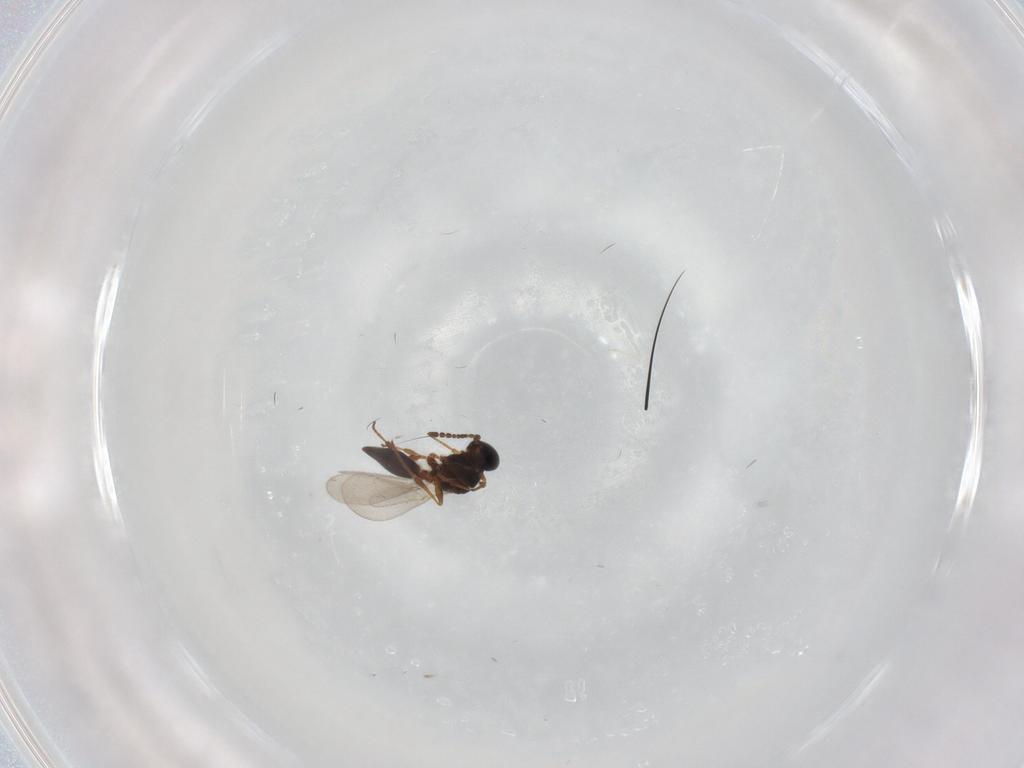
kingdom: Animalia
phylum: Arthropoda
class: Insecta
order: Hymenoptera
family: Platygastridae
